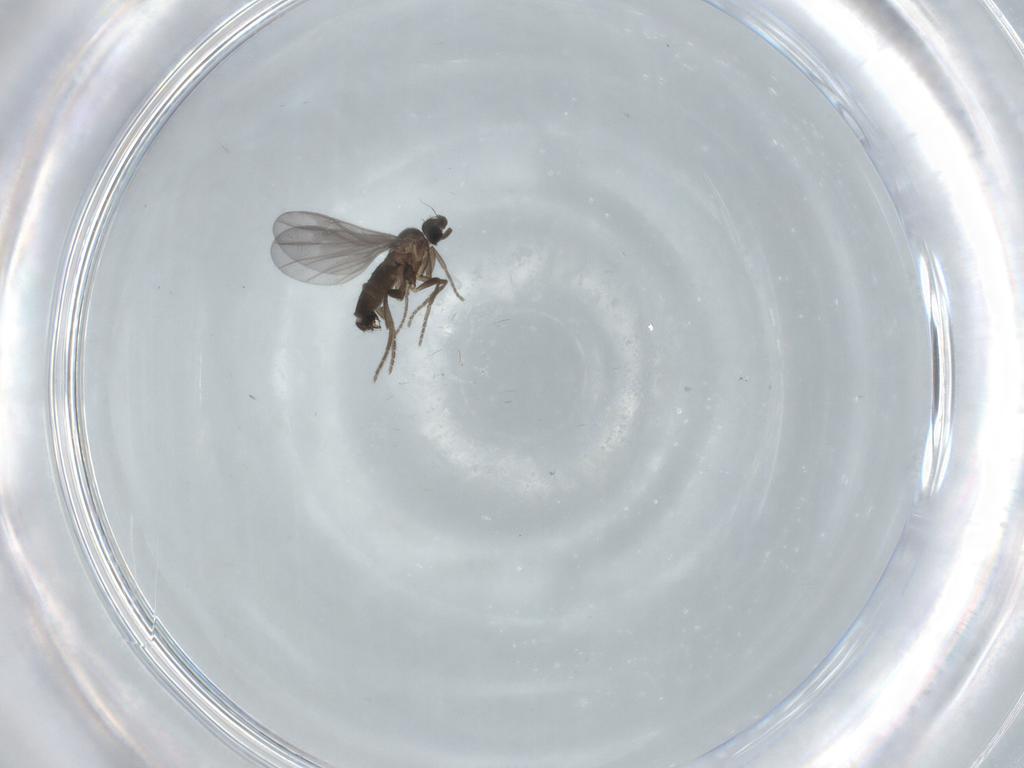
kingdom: Animalia
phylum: Arthropoda
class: Insecta
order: Diptera
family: Phoridae
